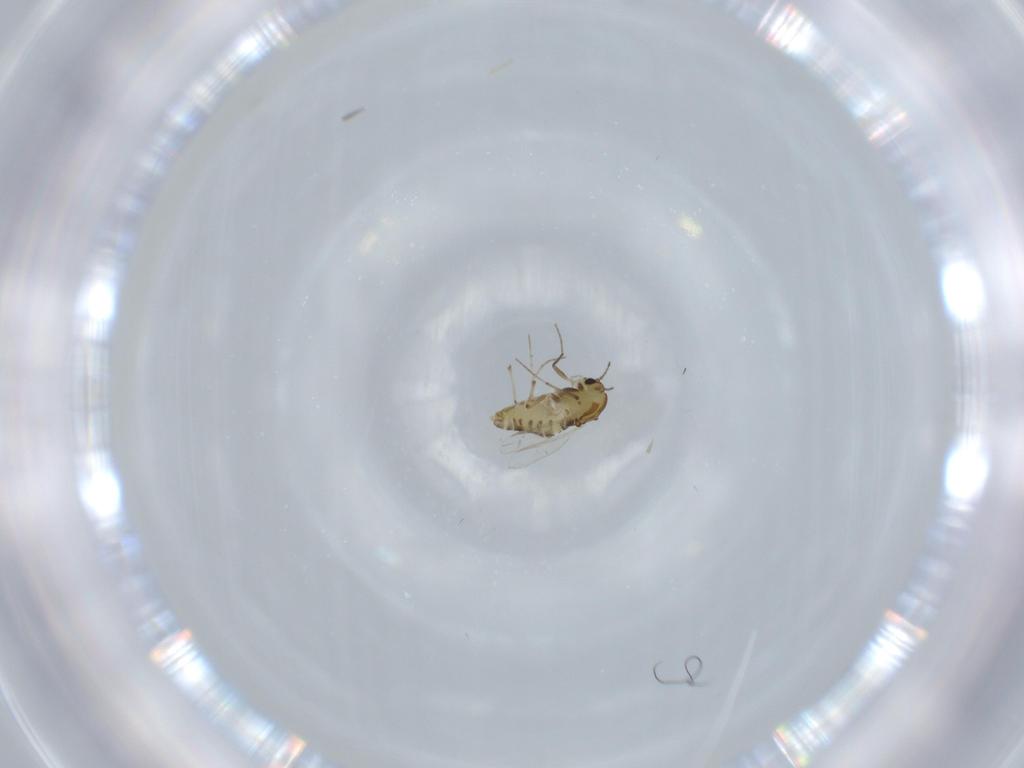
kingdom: Animalia
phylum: Arthropoda
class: Insecta
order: Diptera
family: Chironomidae
